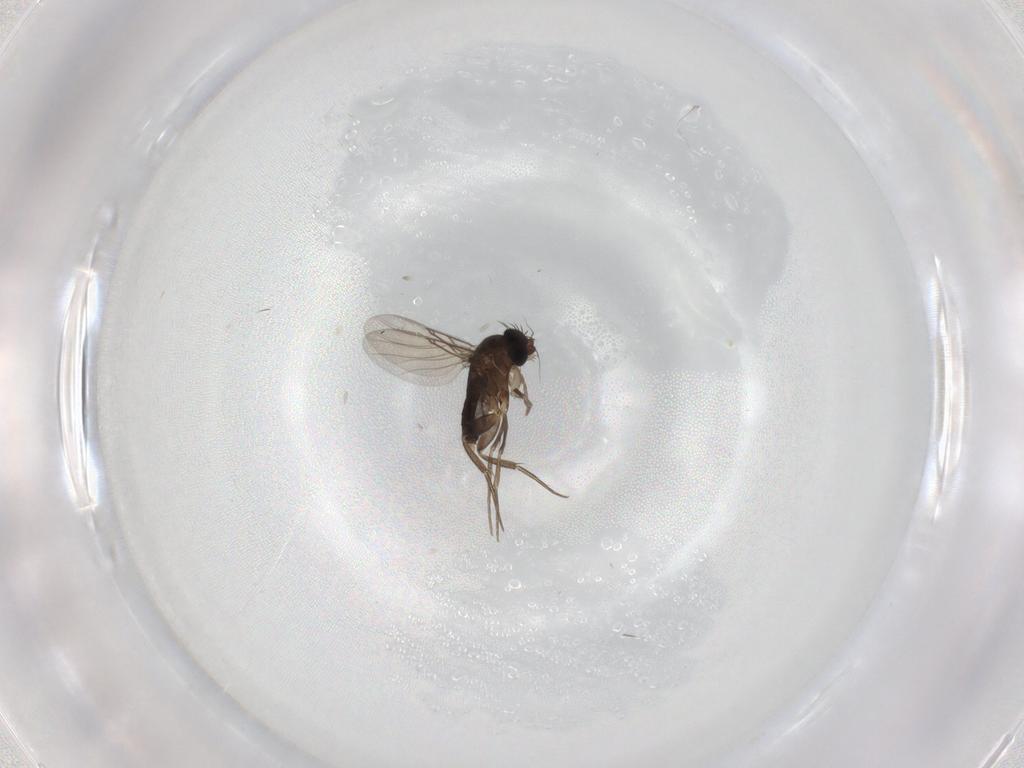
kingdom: Animalia
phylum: Arthropoda
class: Insecta
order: Diptera
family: Phoridae
